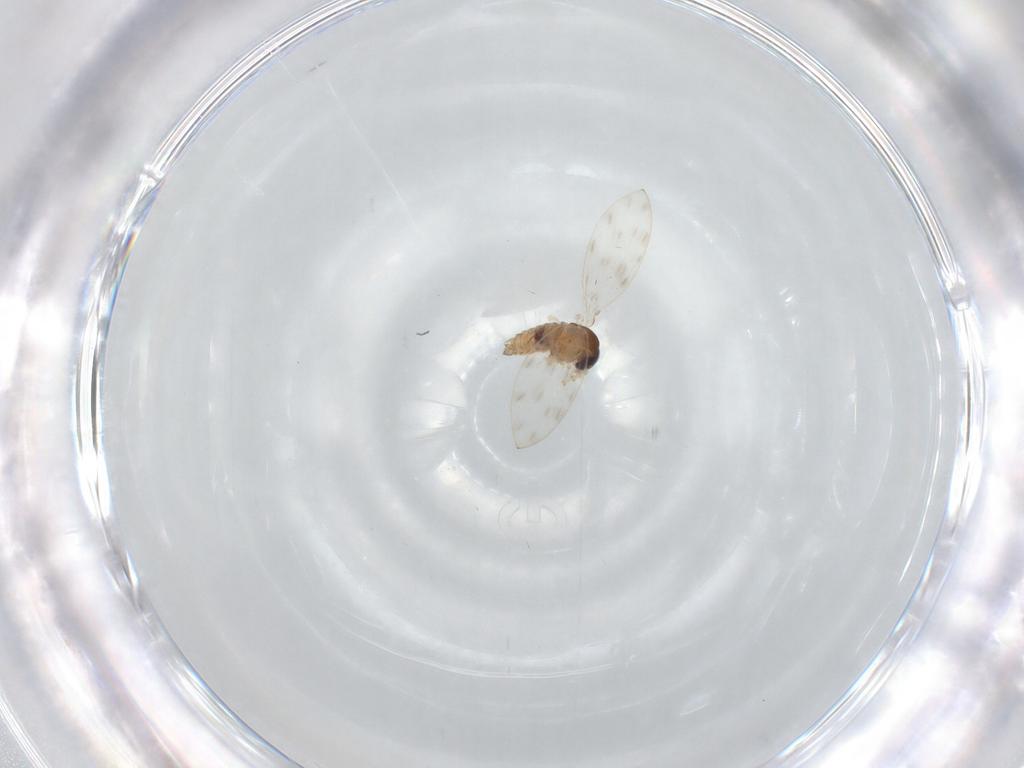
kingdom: Animalia
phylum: Arthropoda
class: Insecta
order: Diptera
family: Psychodidae
